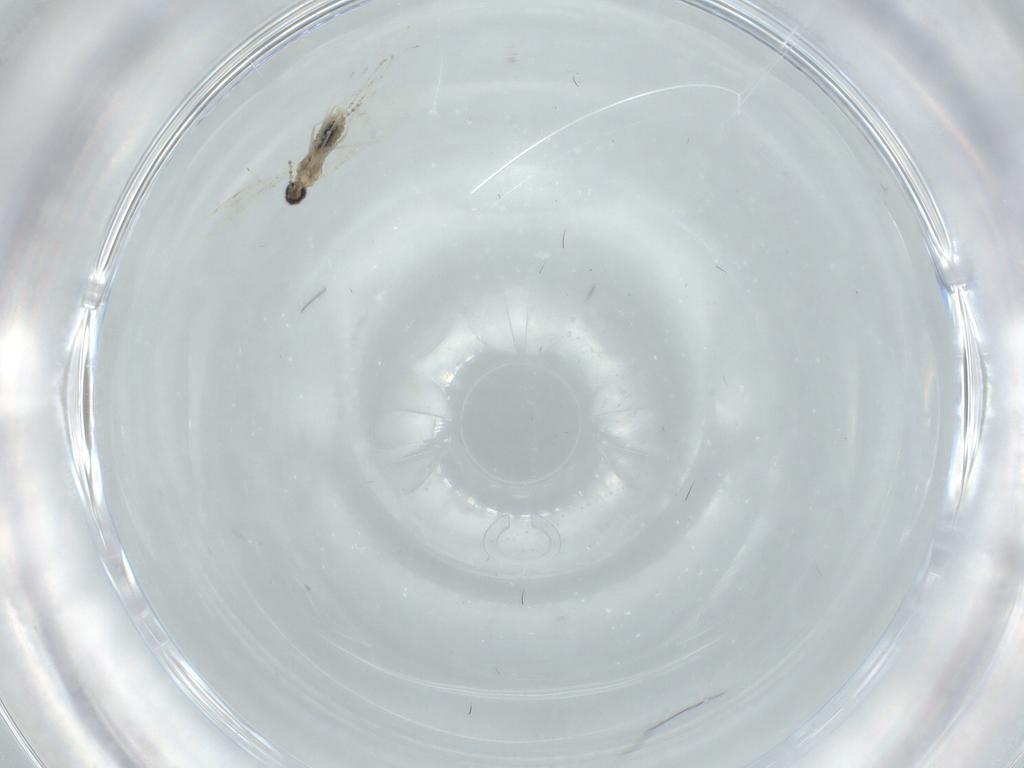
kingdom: Animalia
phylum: Arthropoda
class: Insecta
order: Diptera
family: Cecidomyiidae
